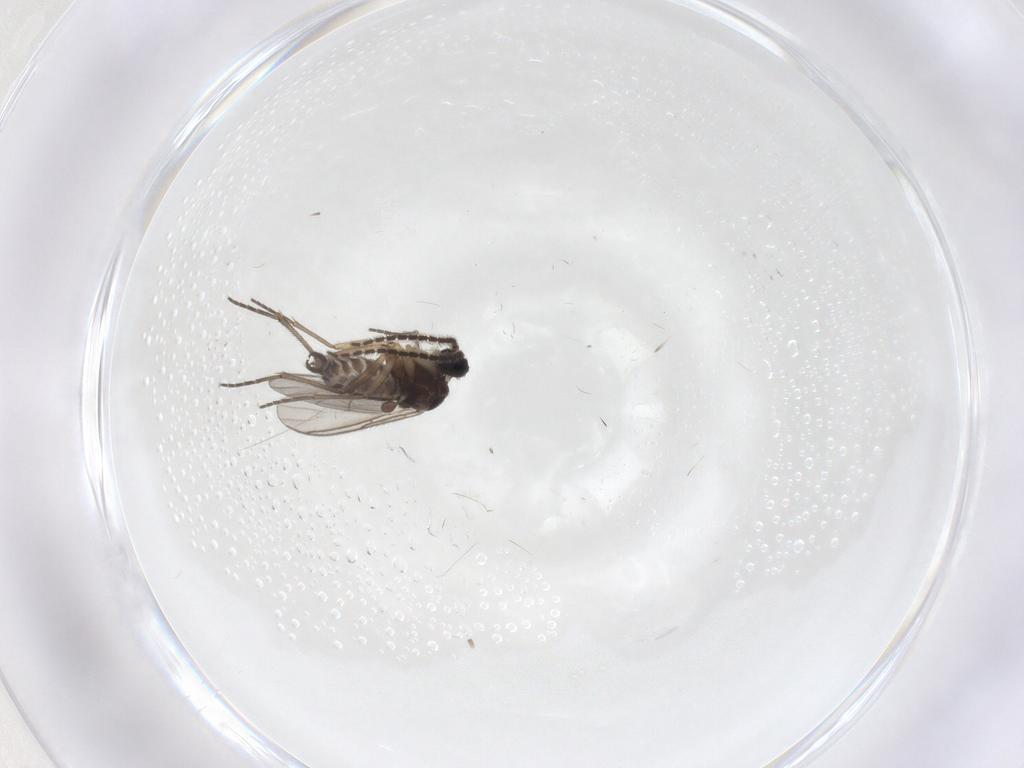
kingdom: Animalia
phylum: Arthropoda
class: Insecta
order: Diptera
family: Sciaridae
